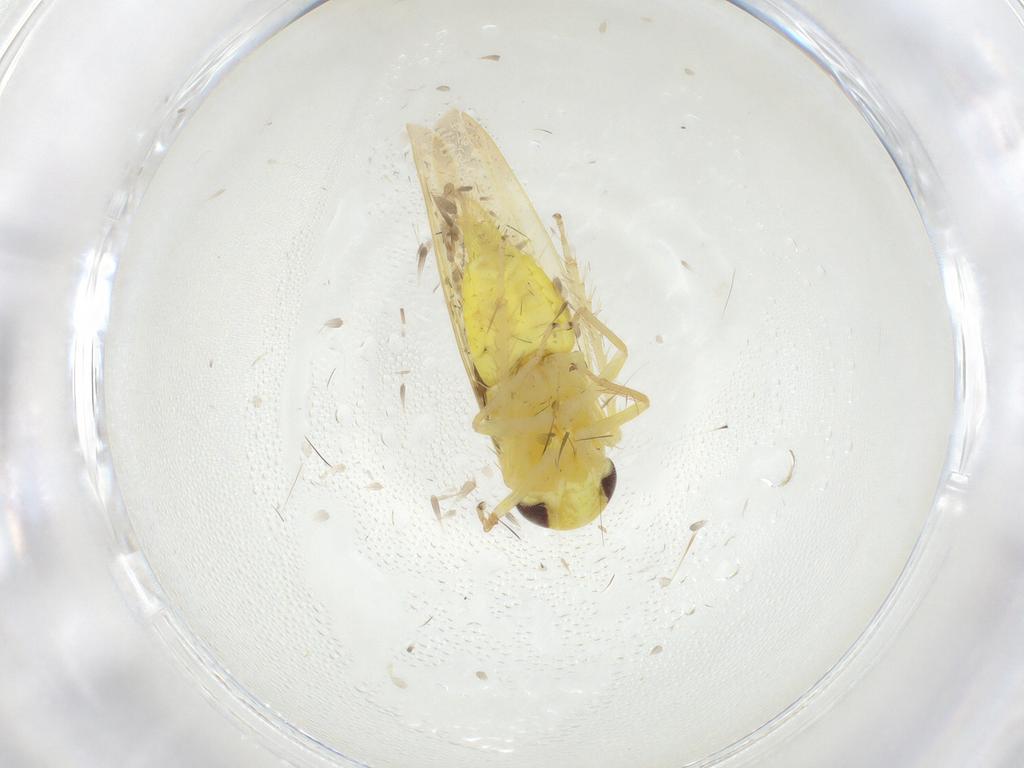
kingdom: Animalia
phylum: Arthropoda
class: Insecta
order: Hemiptera
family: Cicadellidae
